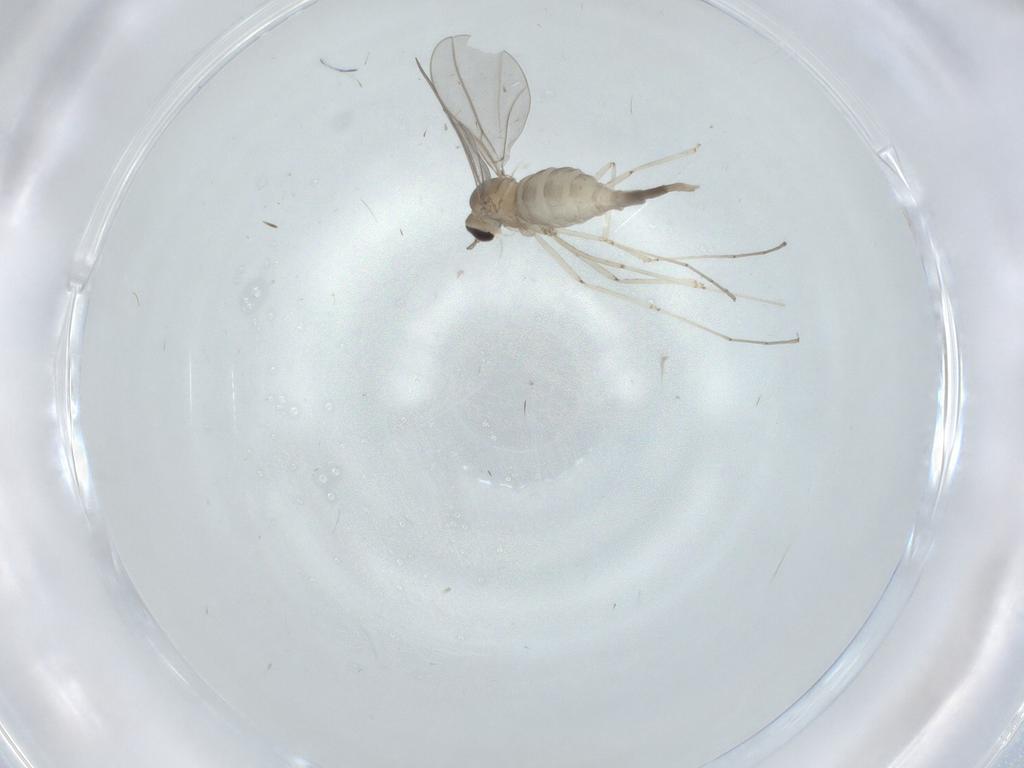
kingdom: Animalia
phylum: Arthropoda
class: Insecta
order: Diptera
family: Cecidomyiidae
